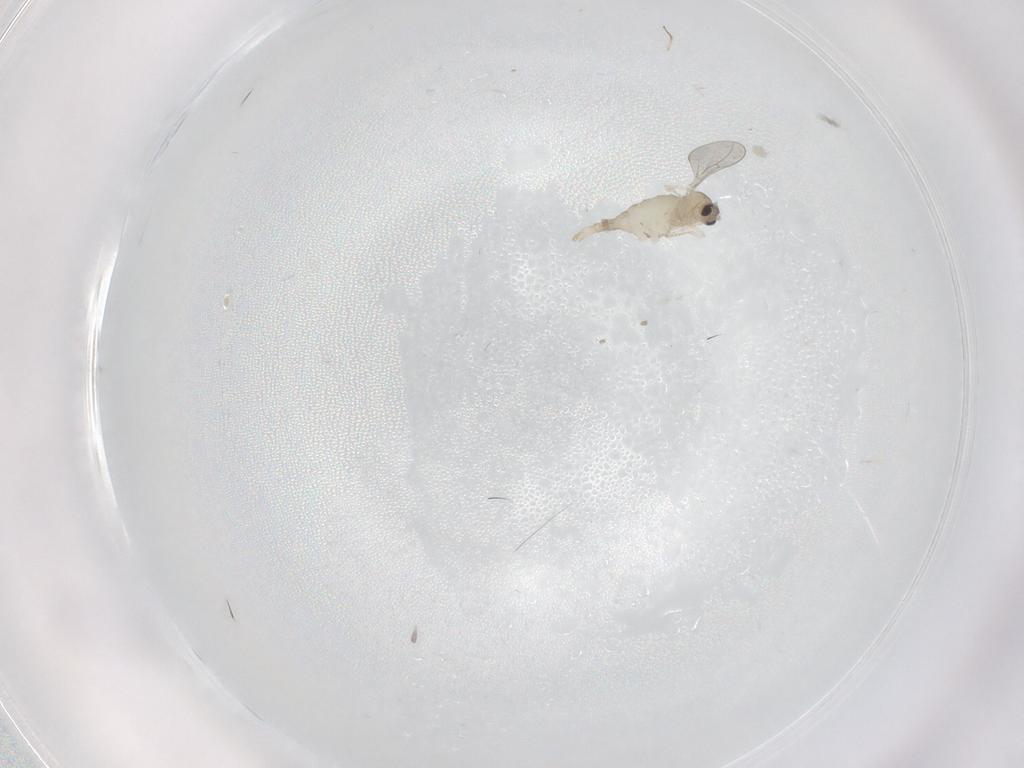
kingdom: Animalia
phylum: Arthropoda
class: Insecta
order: Diptera
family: Cecidomyiidae
